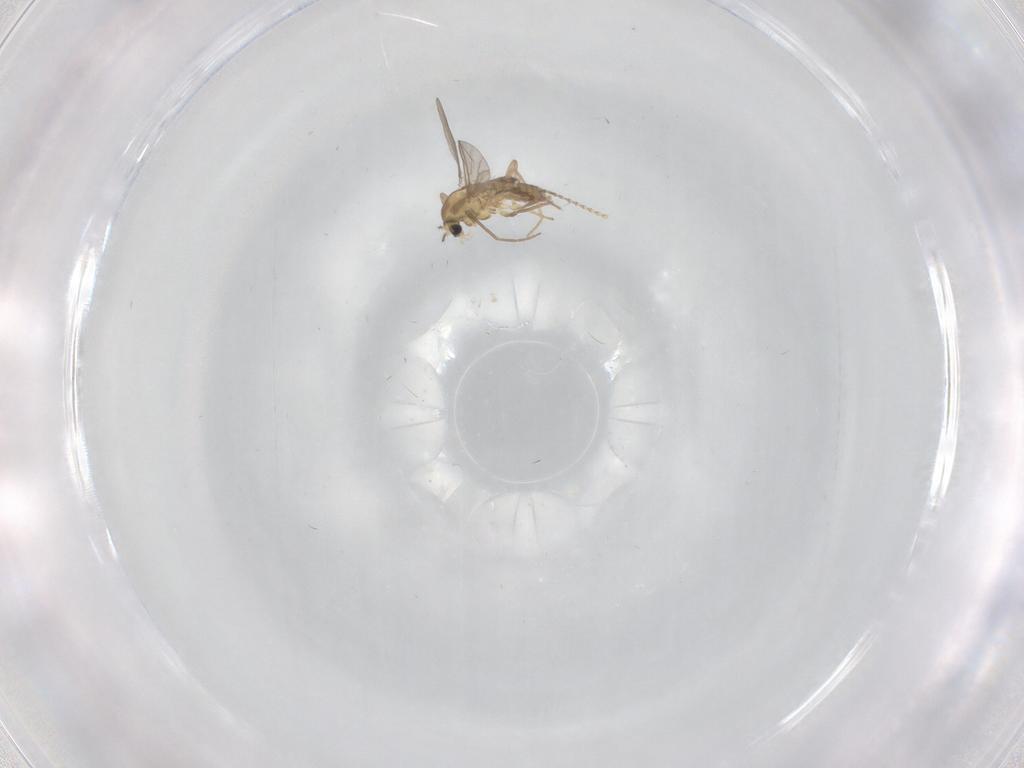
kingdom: Animalia
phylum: Arthropoda
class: Insecta
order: Diptera
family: Chironomidae
